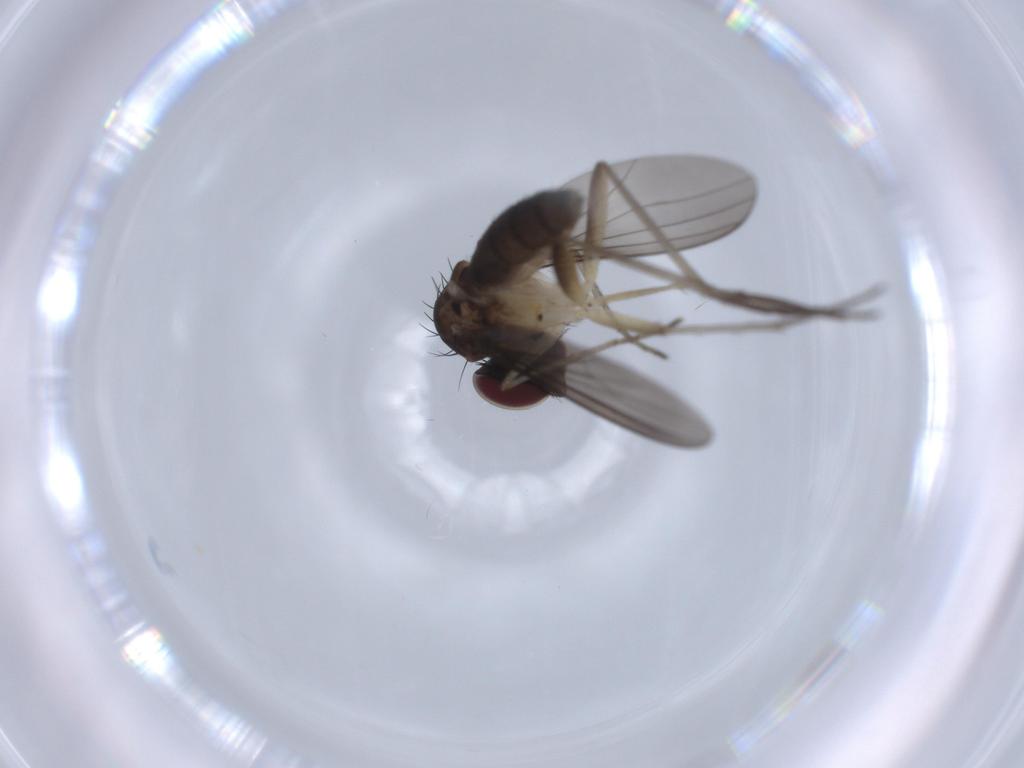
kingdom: Animalia
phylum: Arthropoda
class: Insecta
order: Diptera
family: Dolichopodidae
